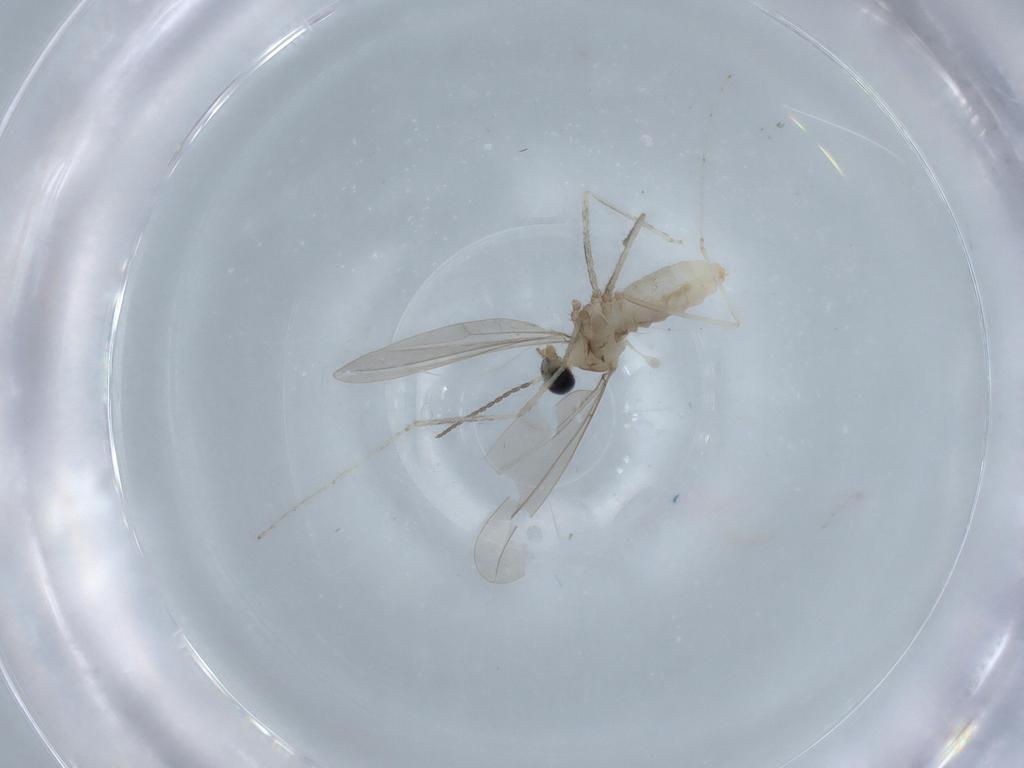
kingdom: Animalia
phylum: Arthropoda
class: Insecta
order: Diptera
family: Cecidomyiidae
